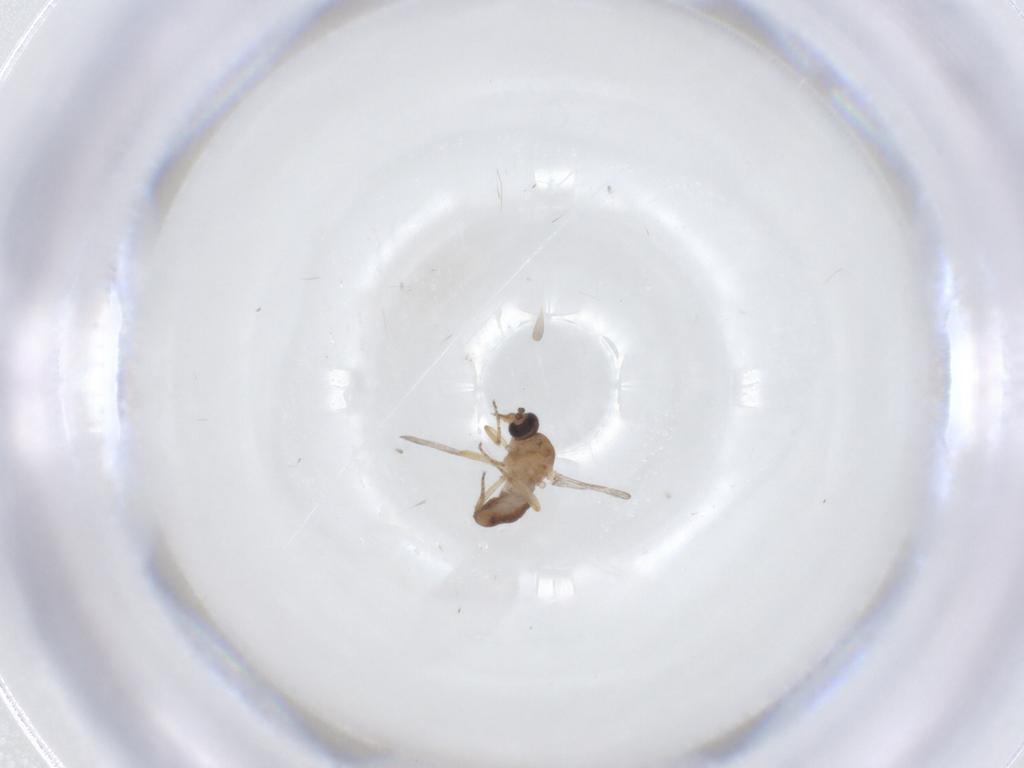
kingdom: Animalia
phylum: Arthropoda
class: Insecta
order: Diptera
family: Ceratopogonidae
